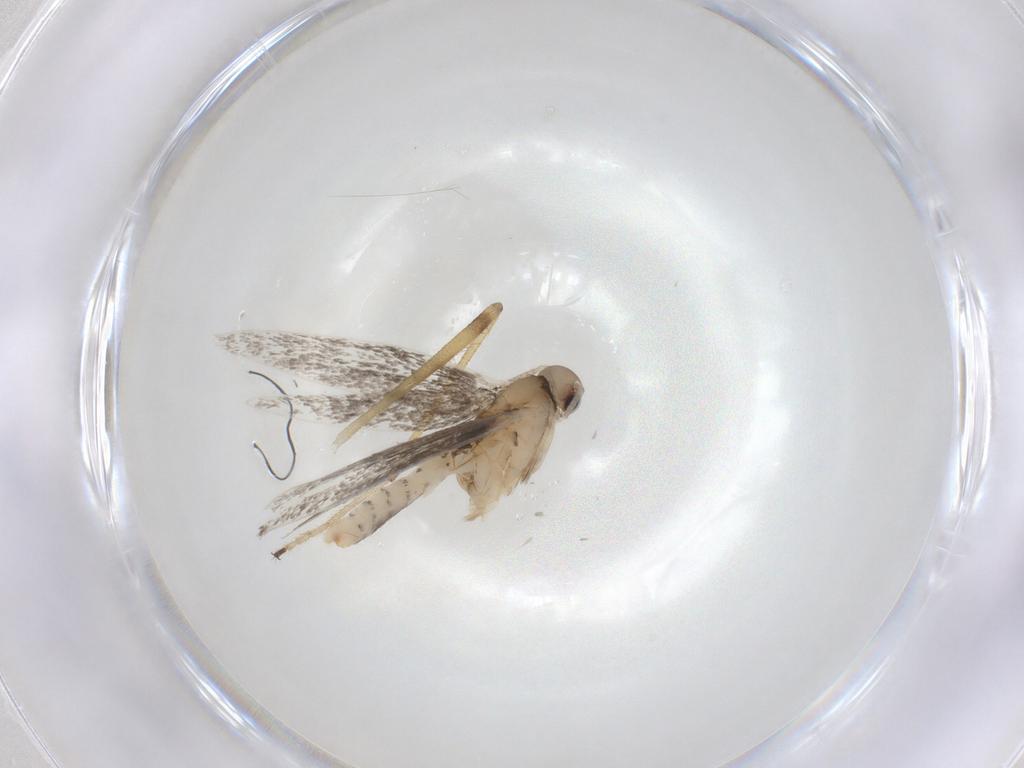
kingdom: Animalia
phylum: Arthropoda
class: Insecta
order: Lepidoptera
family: Gracillariidae
